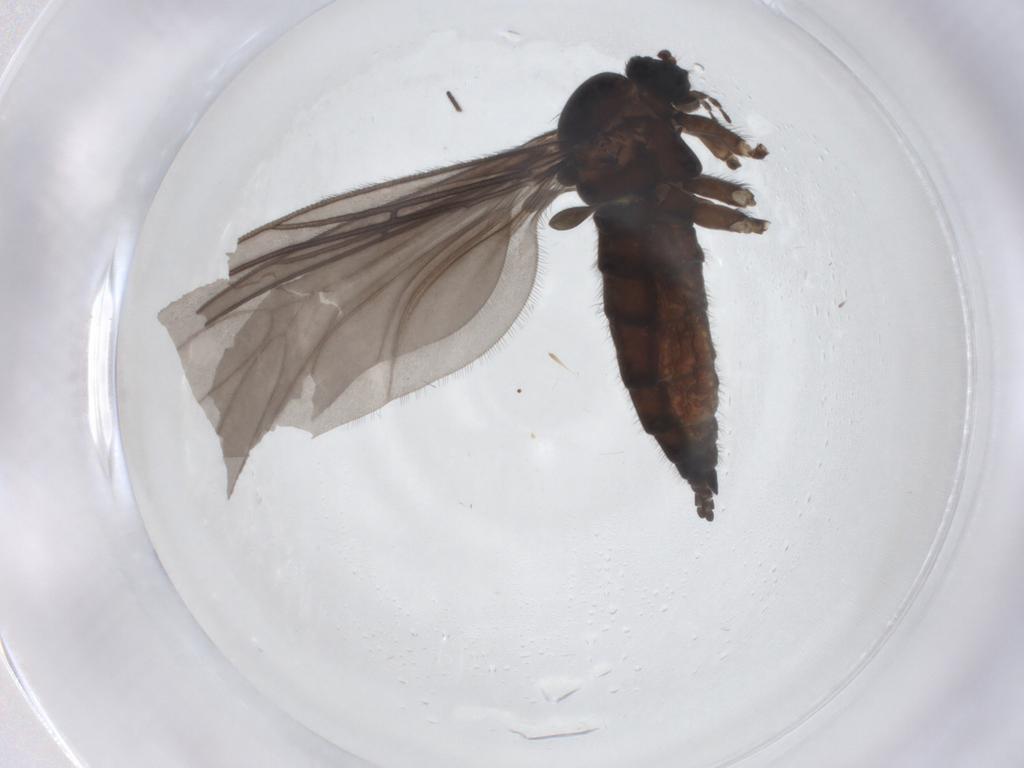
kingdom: Animalia
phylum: Arthropoda
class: Insecta
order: Diptera
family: Sciaridae
